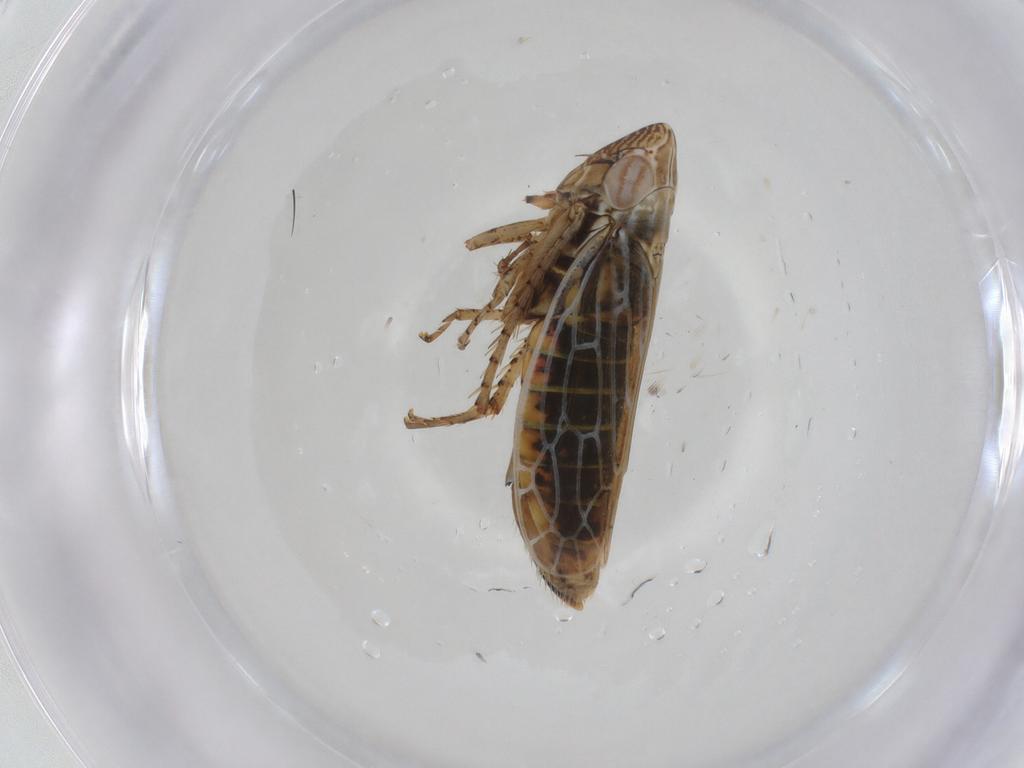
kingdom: Animalia
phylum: Arthropoda
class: Insecta
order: Hemiptera
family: Cicadellidae
